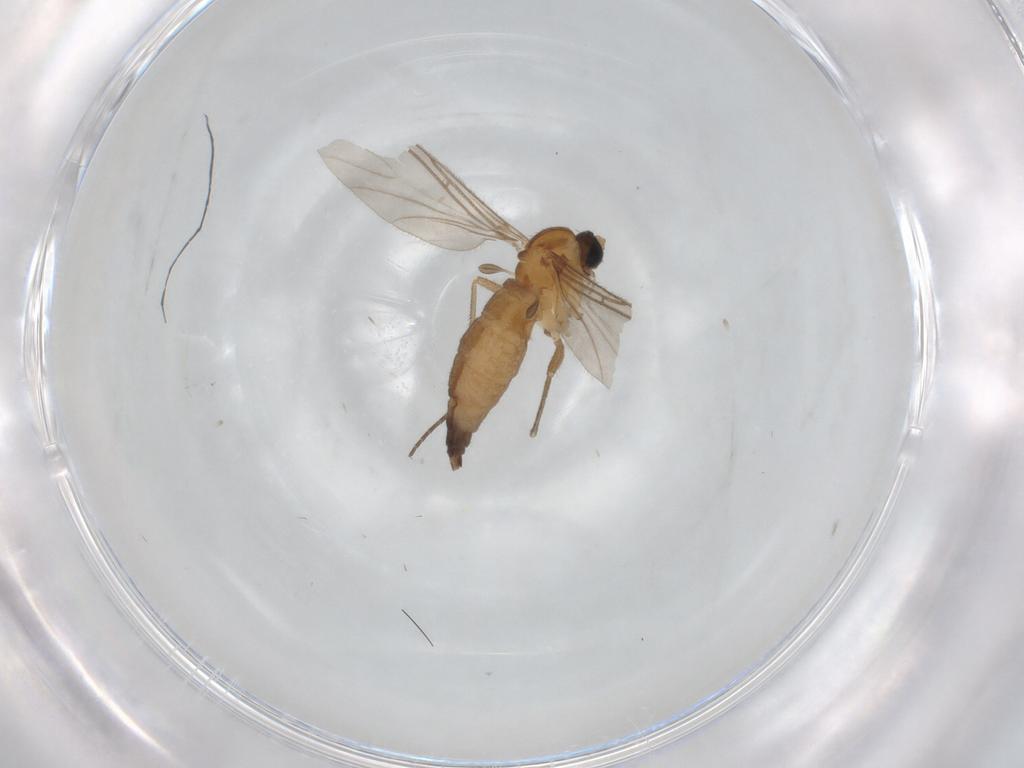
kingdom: Animalia
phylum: Arthropoda
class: Insecta
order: Diptera
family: Sciaridae
